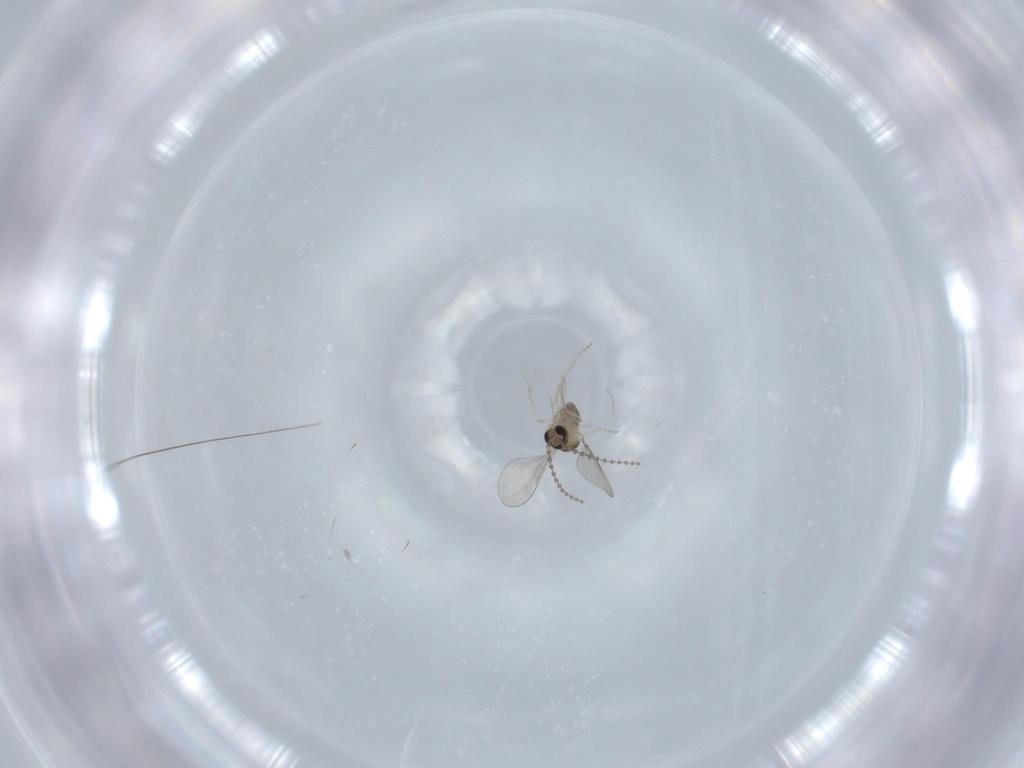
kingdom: Animalia
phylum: Arthropoda
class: Insecta
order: Diptera
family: Cecidomyiidae
